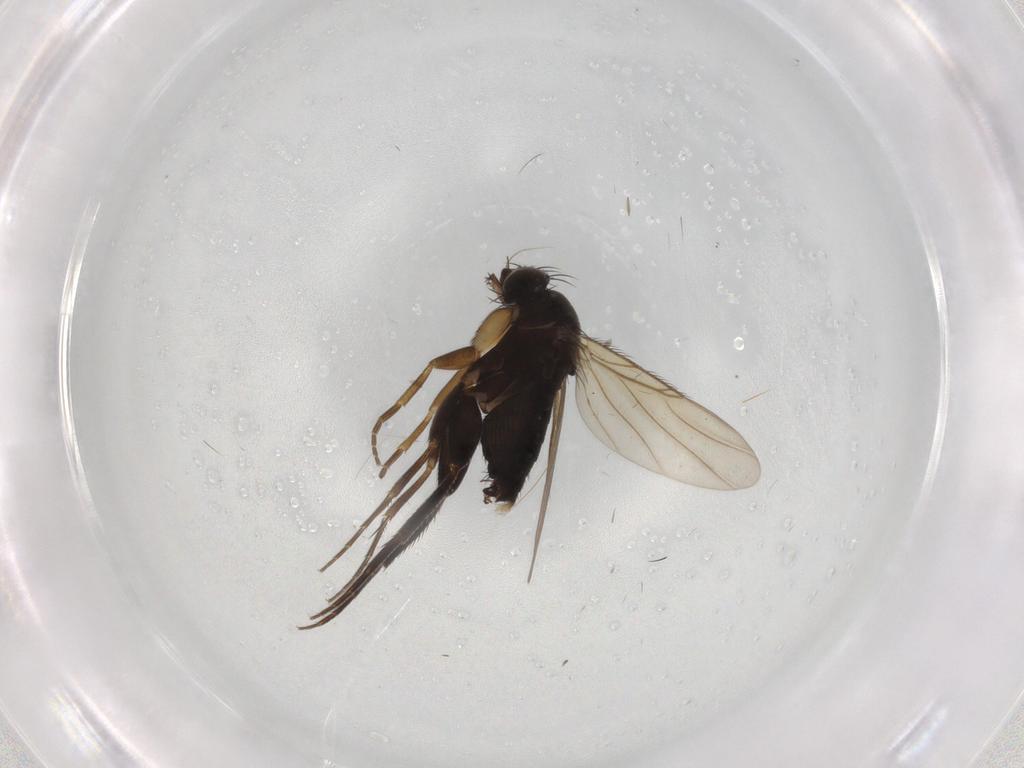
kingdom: Animalia
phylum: Arthropoda
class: Insecta
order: Diptera
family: Phoridae
